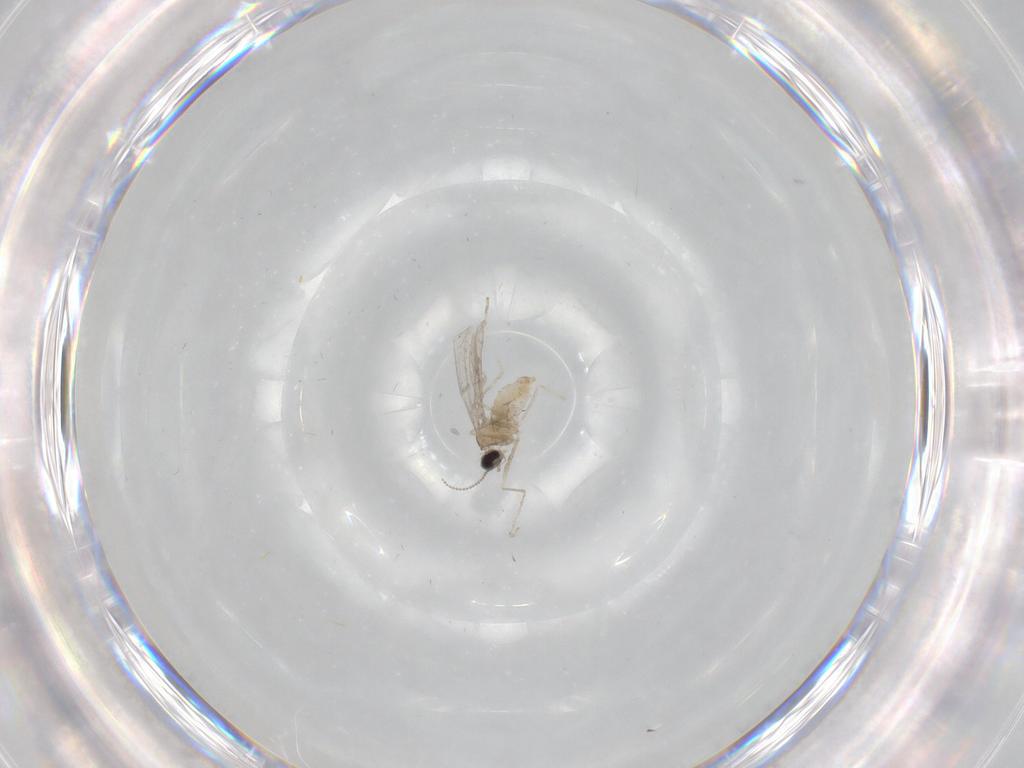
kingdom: Animalia
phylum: Arthropoda
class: Insecta
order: Diptera
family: Cecidomyiidae
